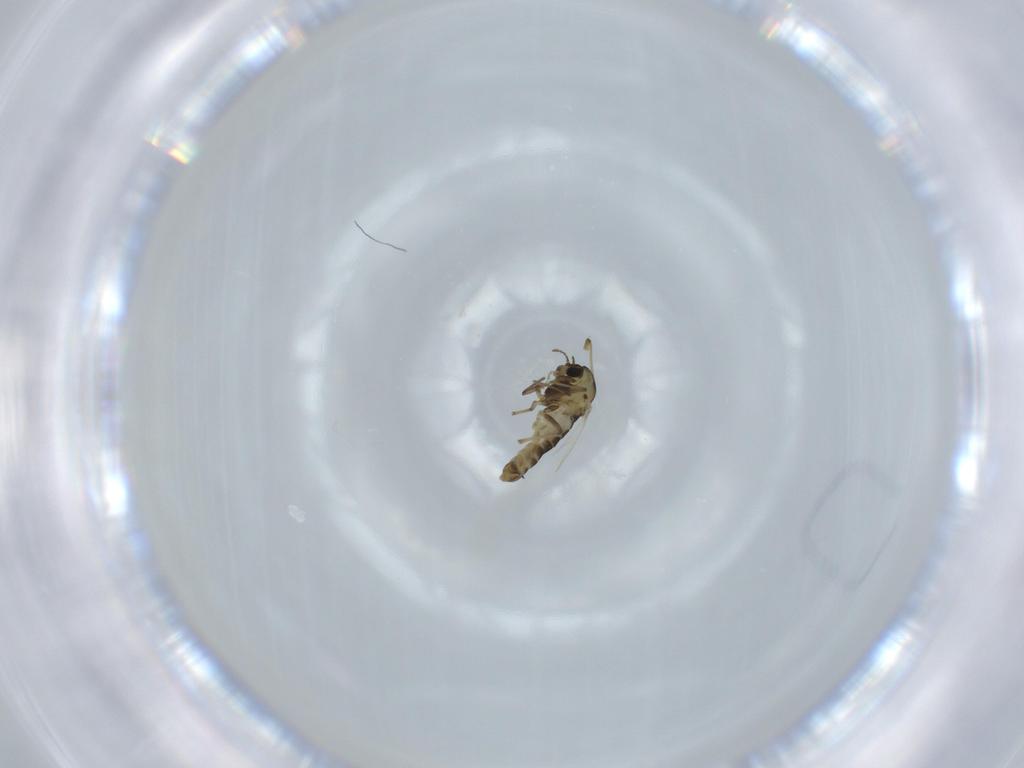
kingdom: Animalia
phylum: Arthropoda
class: Insecta
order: Diptera
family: Chironomidae
